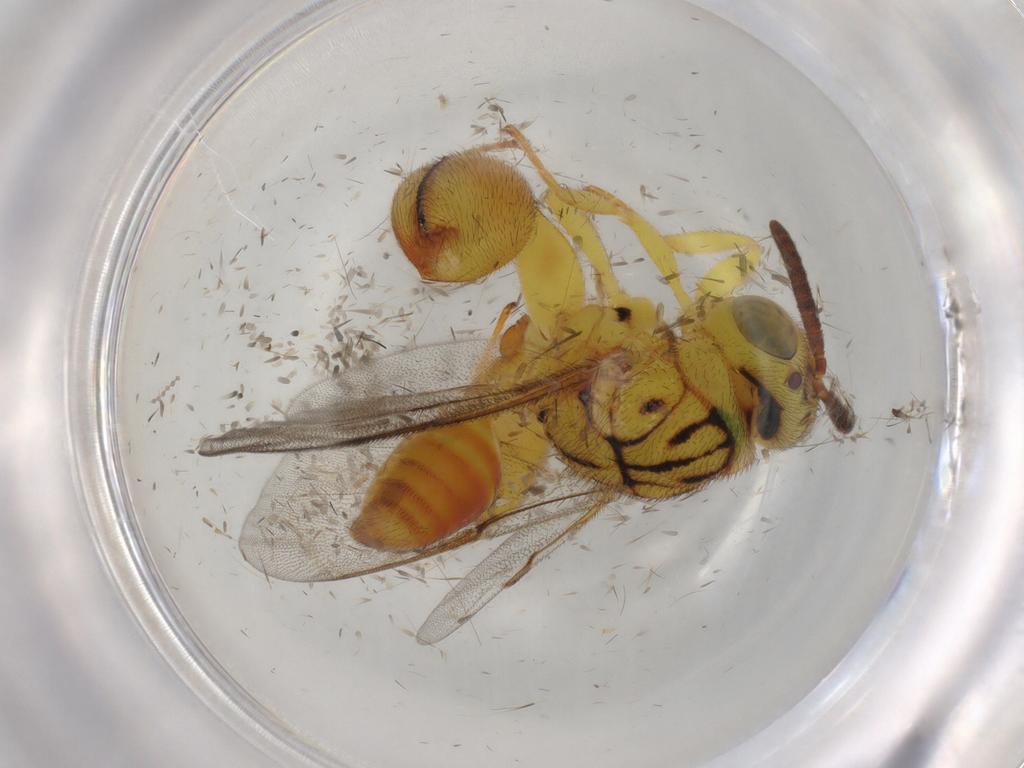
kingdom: Animalia
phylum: Arthropoda
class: Insecta
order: Hymenoptera
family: Chalcididae
